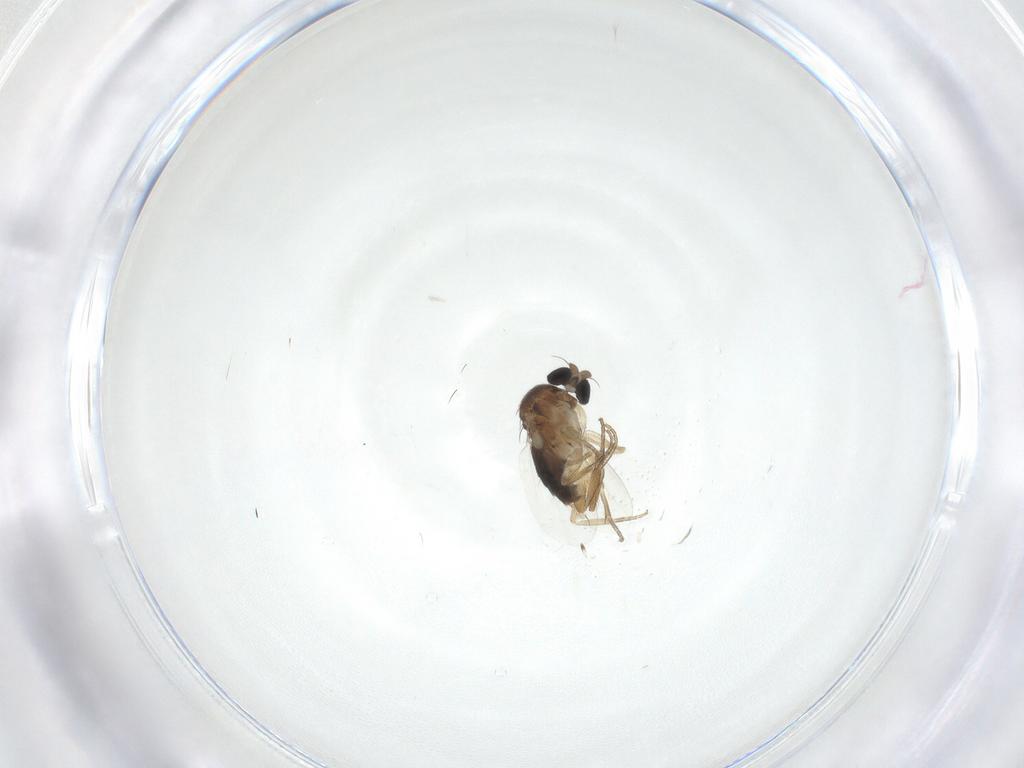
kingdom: Animalia
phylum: Arthropoda
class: Insecta
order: Diptera
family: Phoridae
